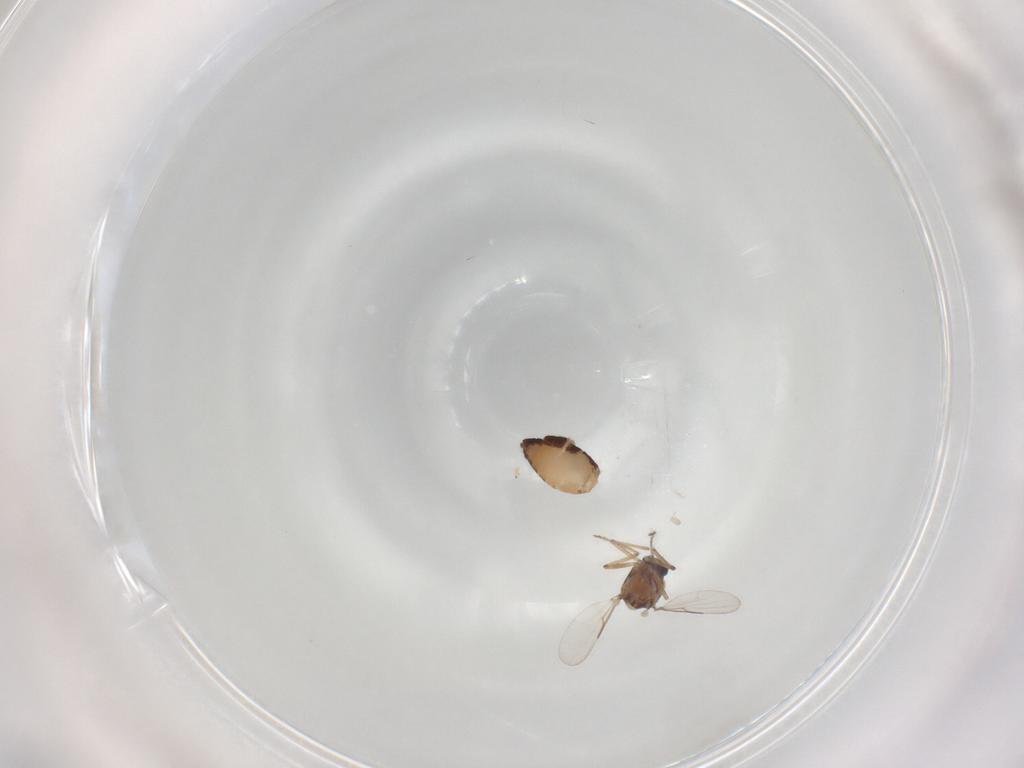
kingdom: Animalia
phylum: Arthropoda
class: Insecta
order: Diptera
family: Ceratopogonidae
